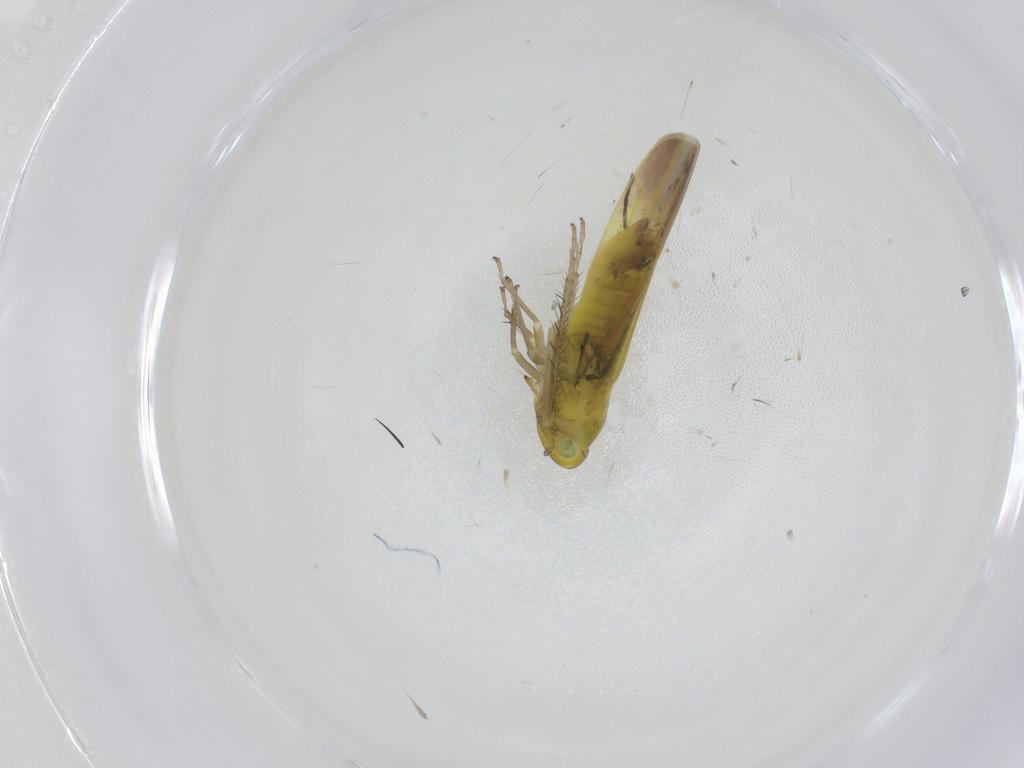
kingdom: Animalia
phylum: Arthropoda
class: Insecta
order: Hemiptera
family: Cicadellidae
